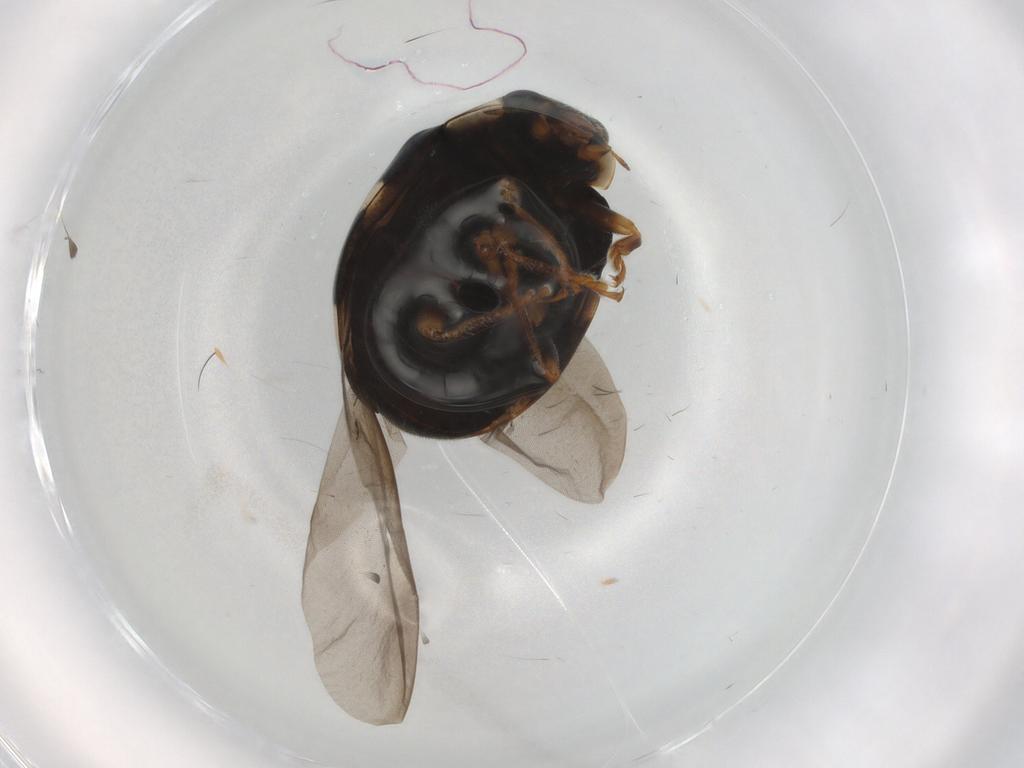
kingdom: Animalia
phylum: Arthropoda
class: Insecta
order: Coleoptera
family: Coccinellidae
